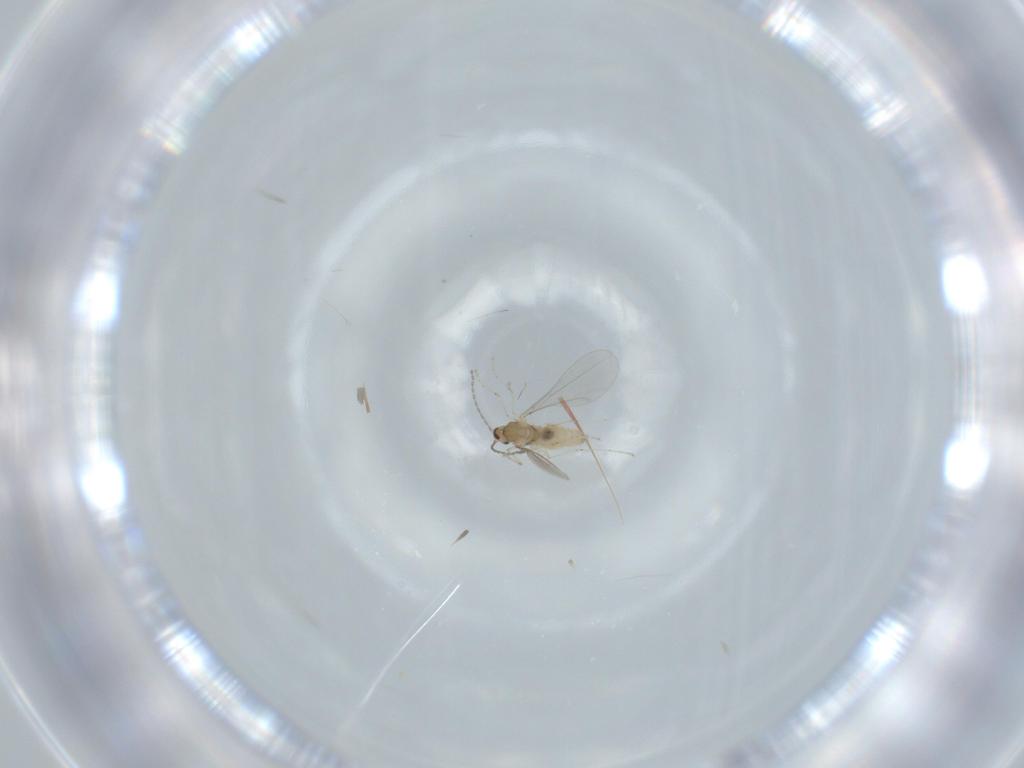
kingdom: Animalia
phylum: Arthropoda
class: Insecta
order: Diptera
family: Cecidomyiidae
